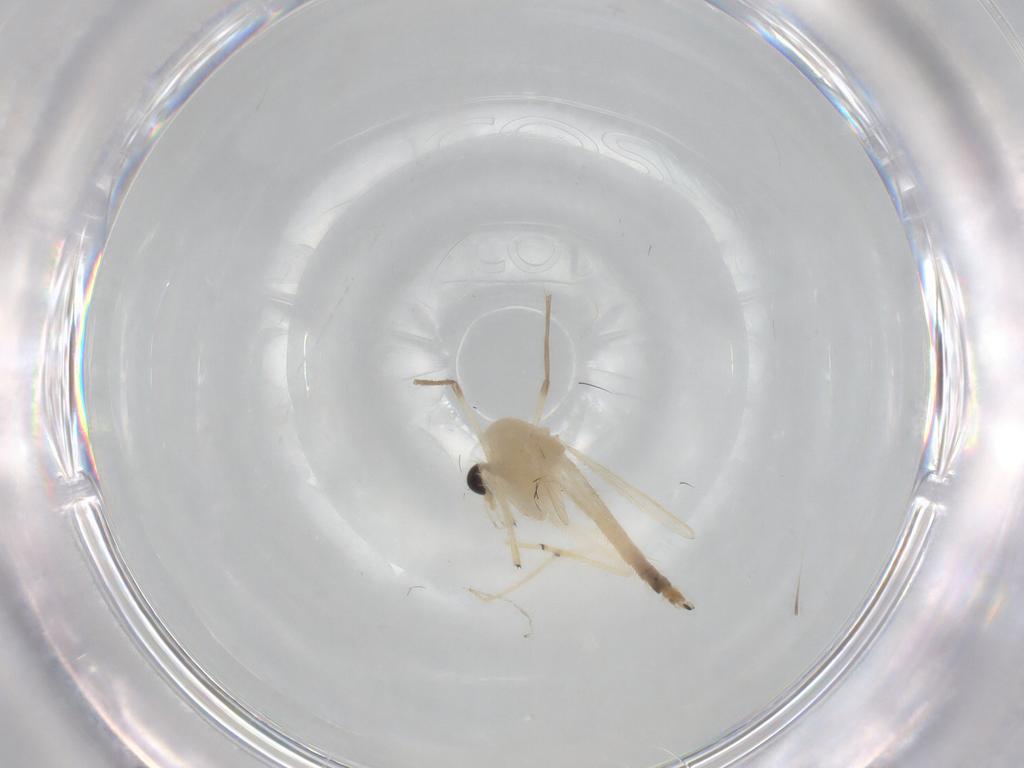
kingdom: Animalia
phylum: Arthropoda
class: Insecta
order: Diptera
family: Chironomidae
